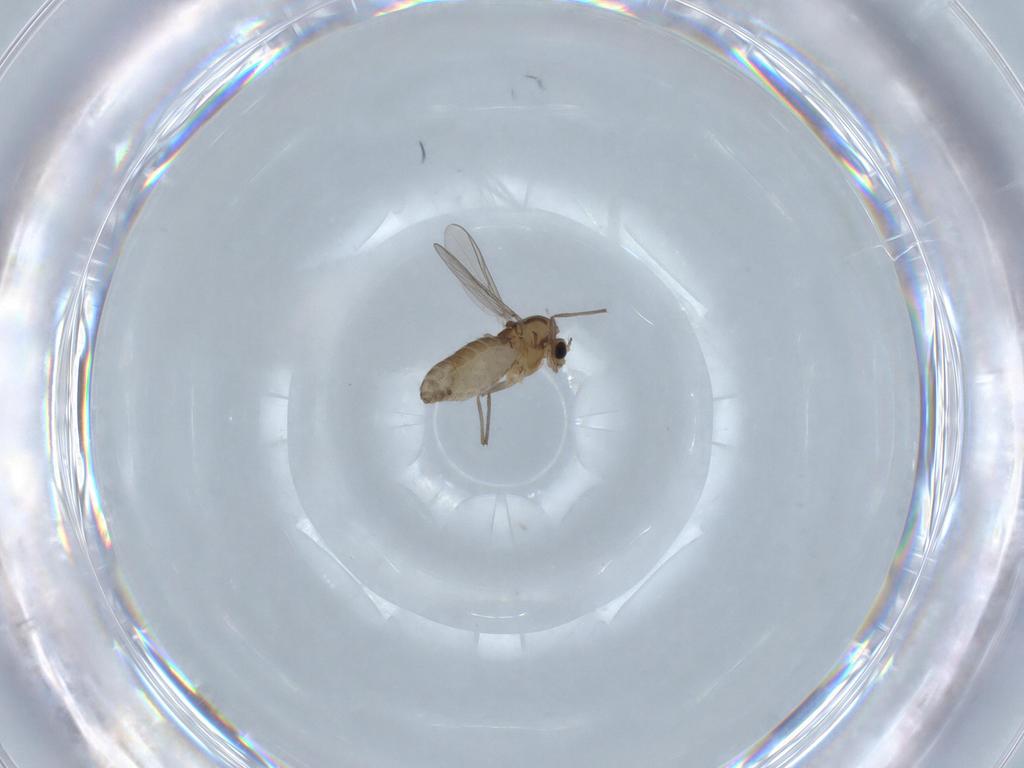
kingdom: Animalia
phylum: Arthropoda
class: Insecta
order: Diptera
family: Chironomidae
